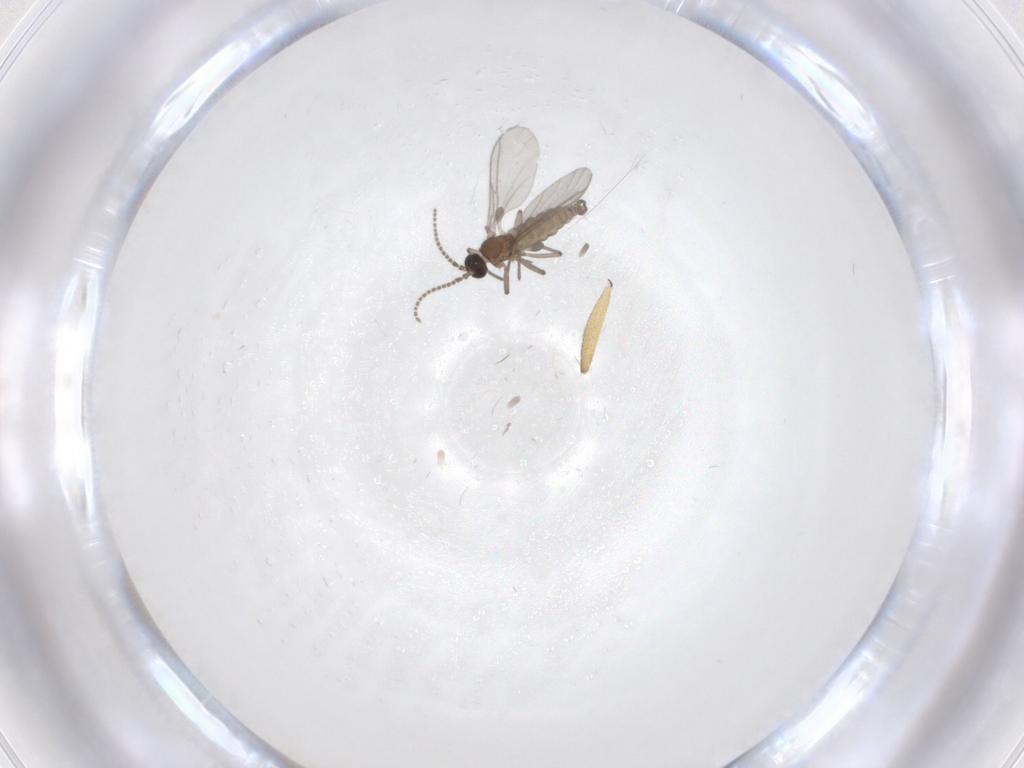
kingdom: Animalia
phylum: Arthropoda
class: Insecta
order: Diptera
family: Sciaridae
